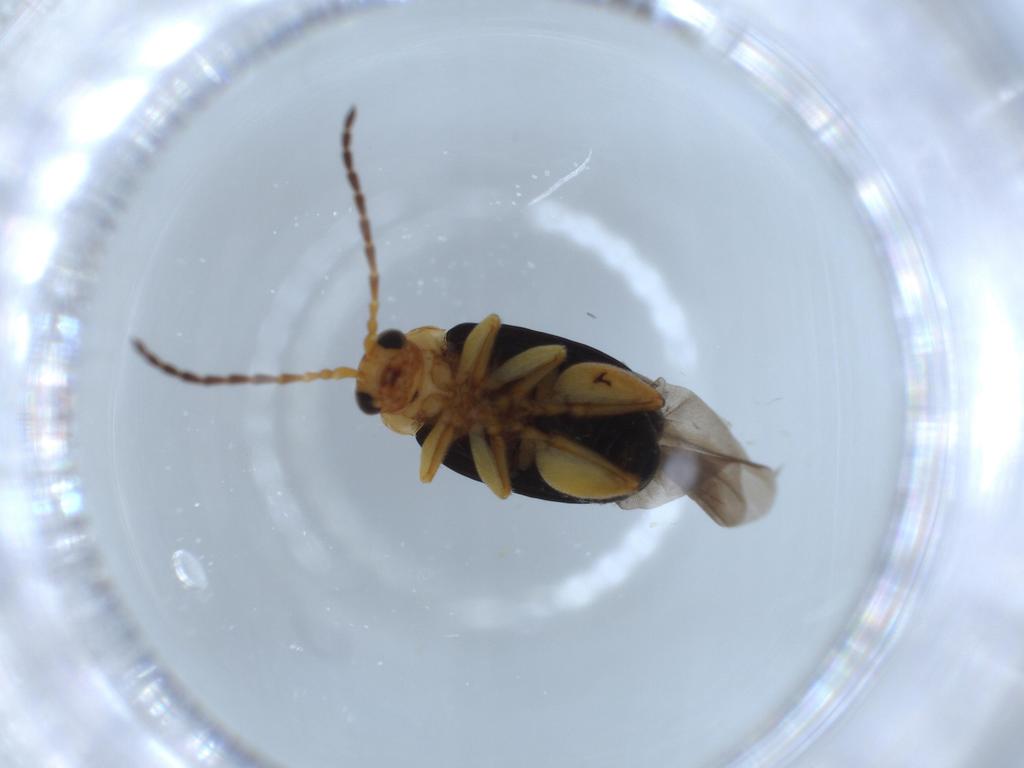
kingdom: Animalia
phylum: Arthropoda
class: Insecta
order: Coleoptera
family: Chrysomelidae
